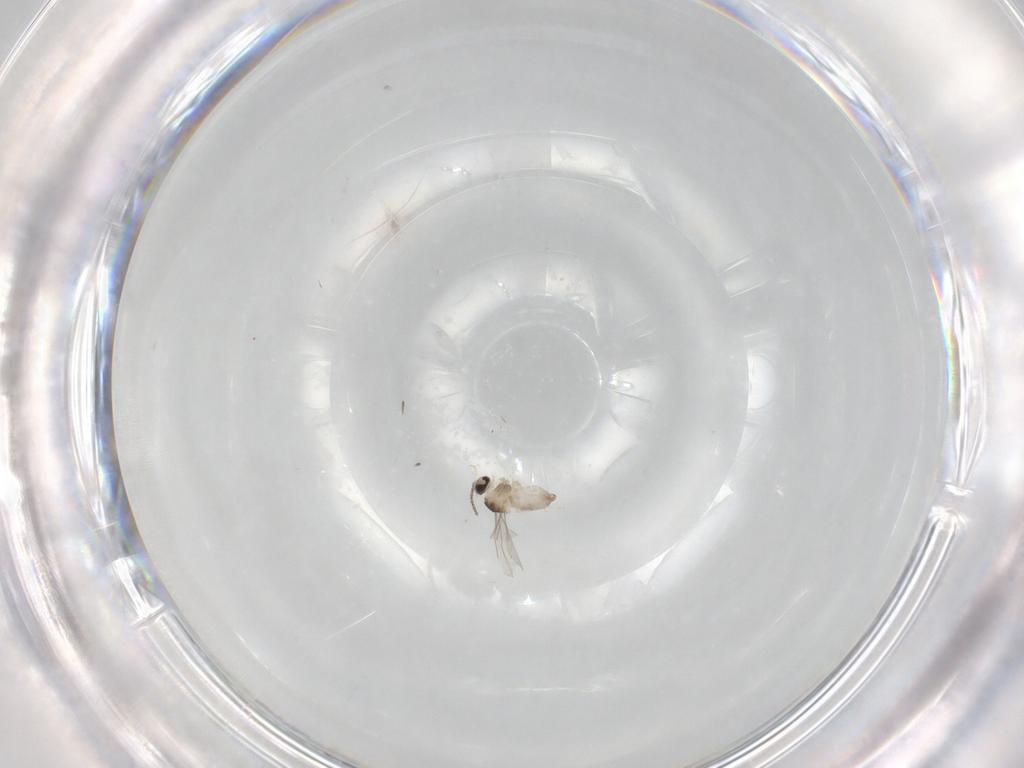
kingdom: Animalia
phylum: Arthropoda
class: Insecta
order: Diptera
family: Cecidomyiidae
